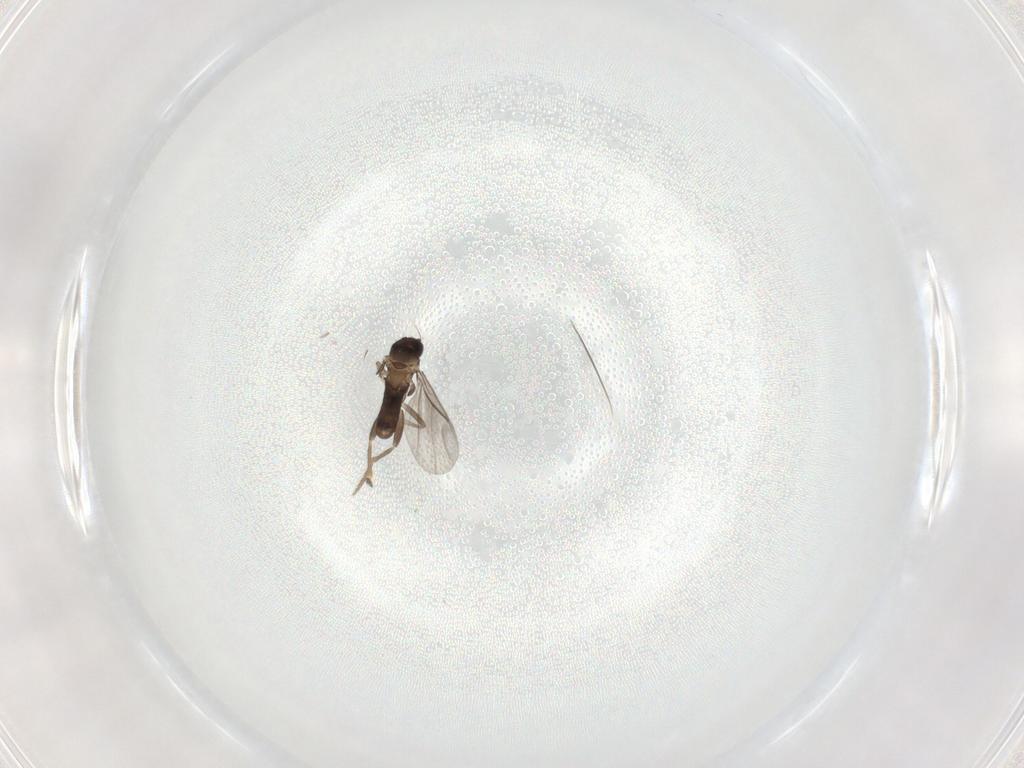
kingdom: Animalia
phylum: Arthropoda
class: Insecta
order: Diptera
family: Cecidomyiidae
